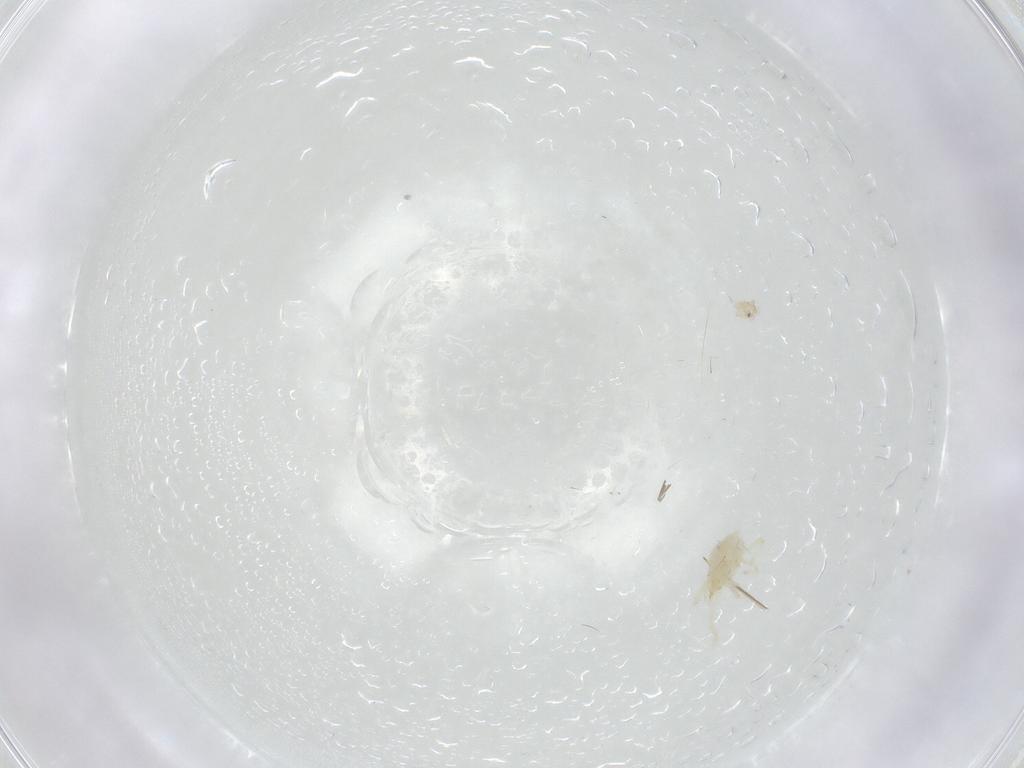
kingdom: Animalia
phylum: Arthropoda
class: Arachnida
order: Trombidiformes
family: Erythraeidae
